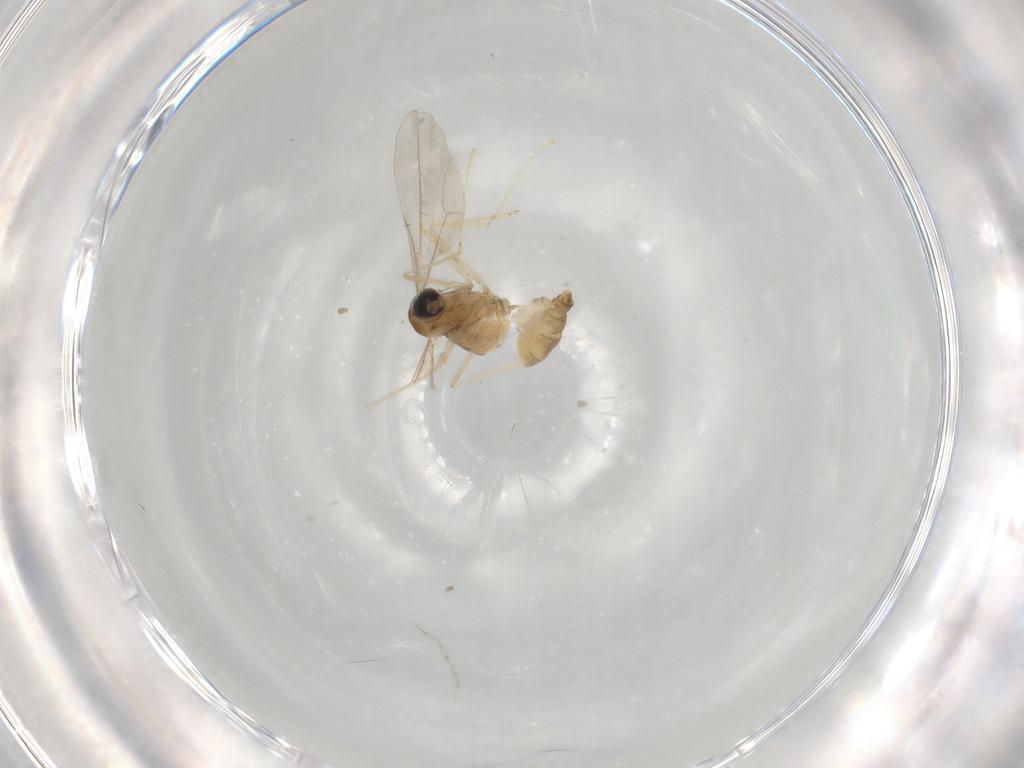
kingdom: Animalia
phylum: Arthropoda
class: Insecta
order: Diptera
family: Cecidomyiidae
